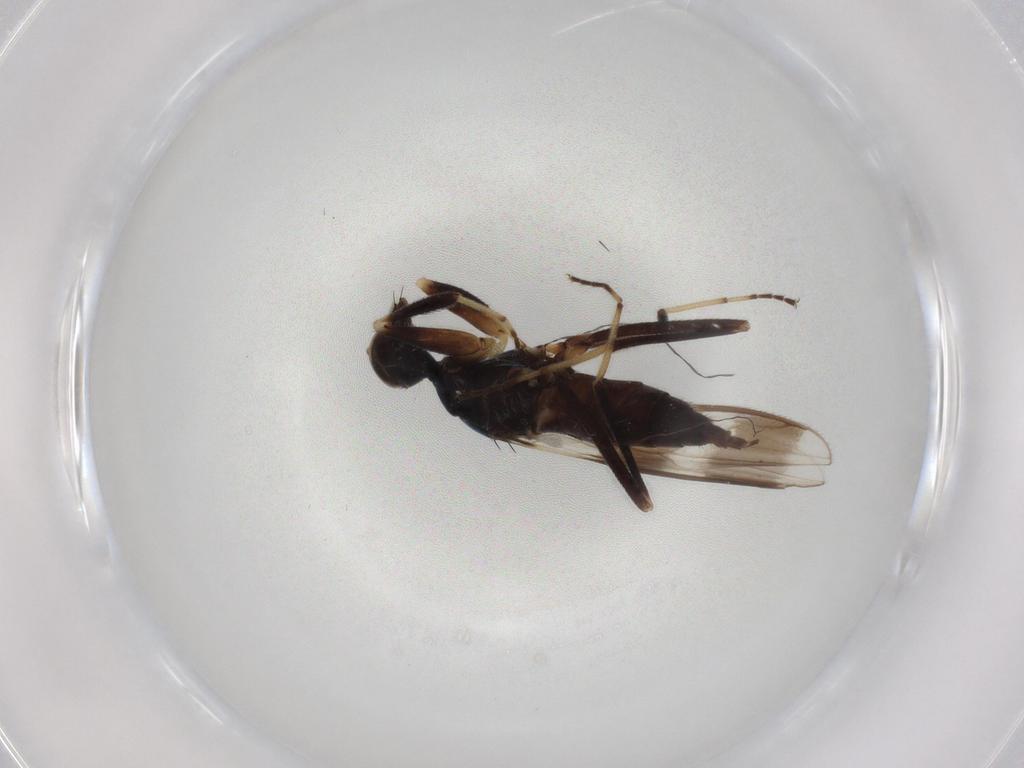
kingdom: Animalia
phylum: Arthropoda
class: Insecta
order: Diptera
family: Hybotidae
